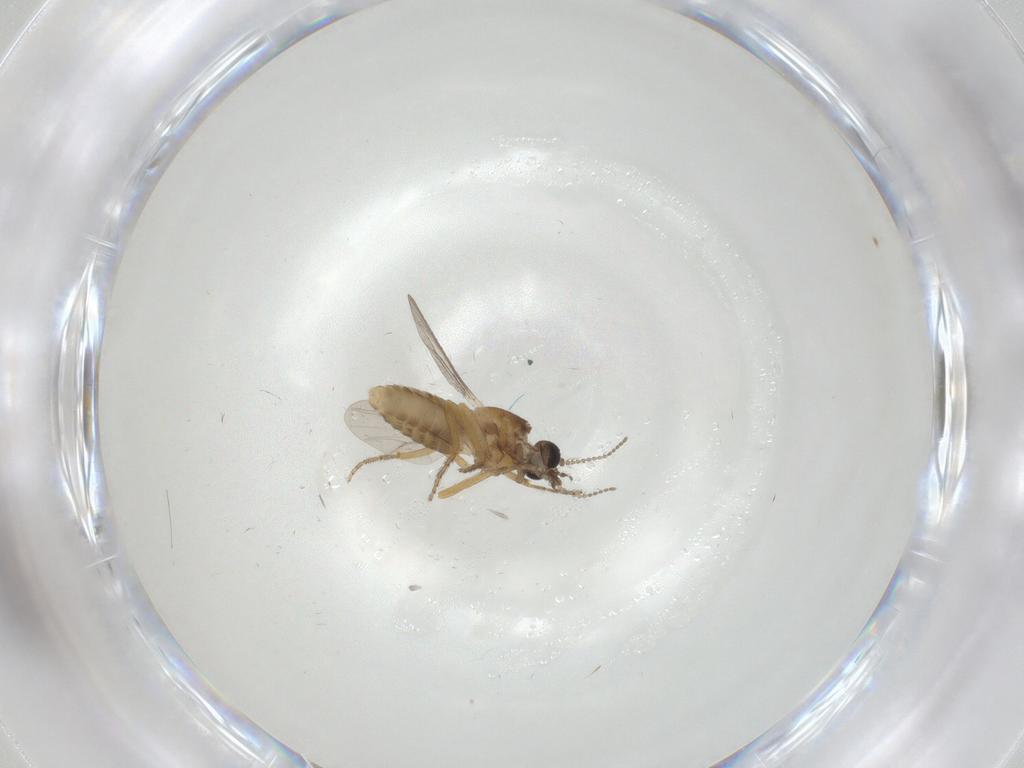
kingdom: Animalia
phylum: Arthropoda
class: Insecta
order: Diptera
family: Ceratopogonidae
